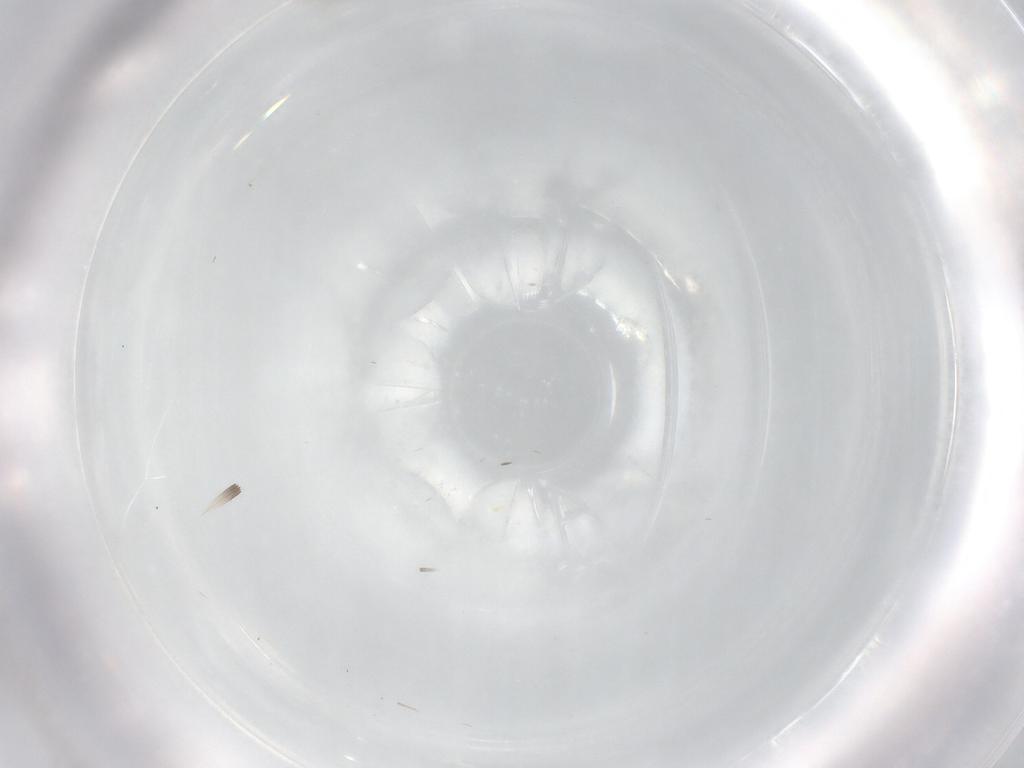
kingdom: Animalia
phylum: Arthropoda
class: Insecta
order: Diptera
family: Cecidomyiidae
